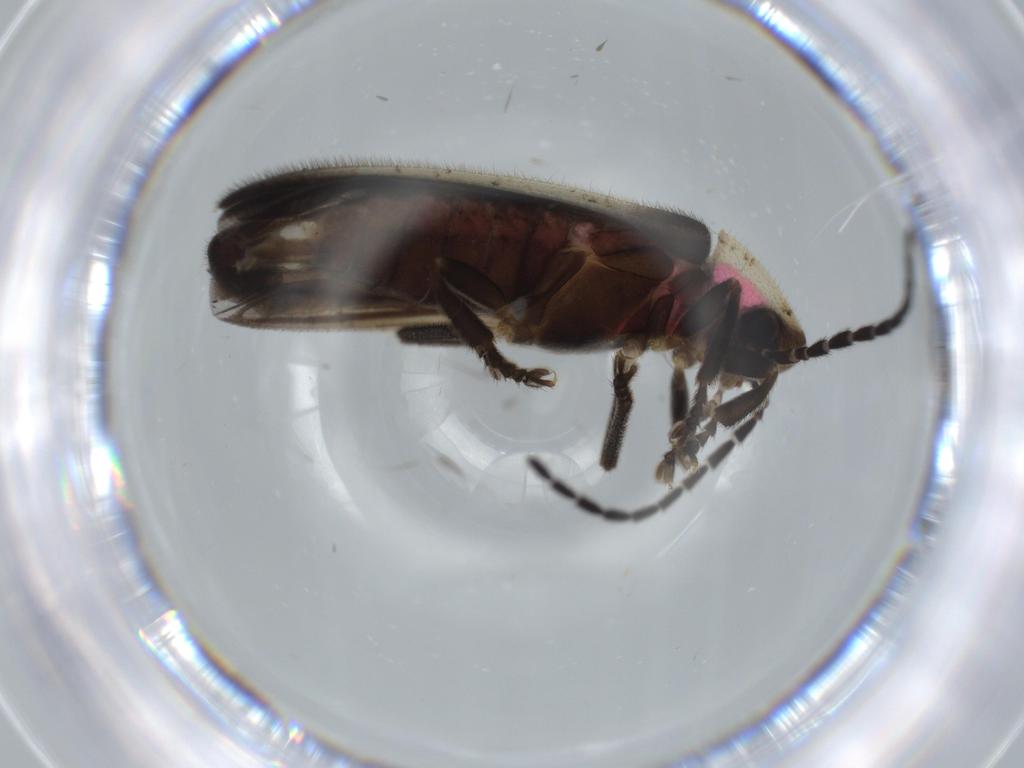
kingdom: Animalia
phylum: Arthropoda
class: Insecta
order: Coleoptera
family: Lampyridae
